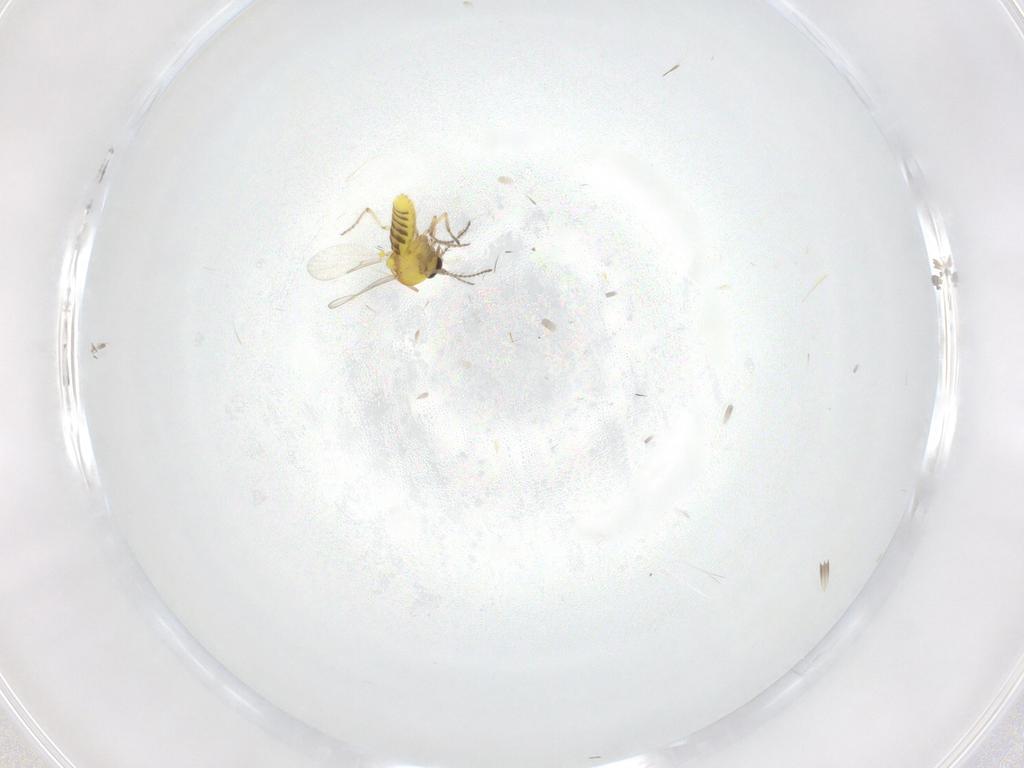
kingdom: Animalia
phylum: Arthropoda
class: Insecta
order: Diptera
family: Ceratopogonidae
